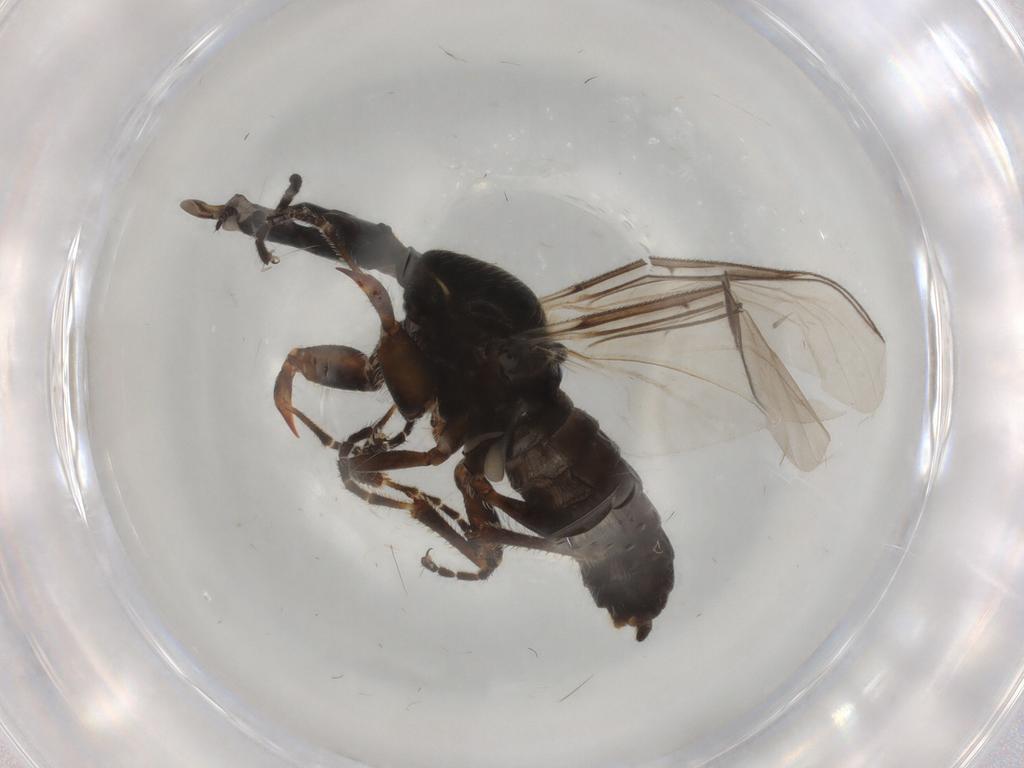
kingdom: Animalia
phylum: Arthropoda
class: Insecta
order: Diptera
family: Bibionidae
